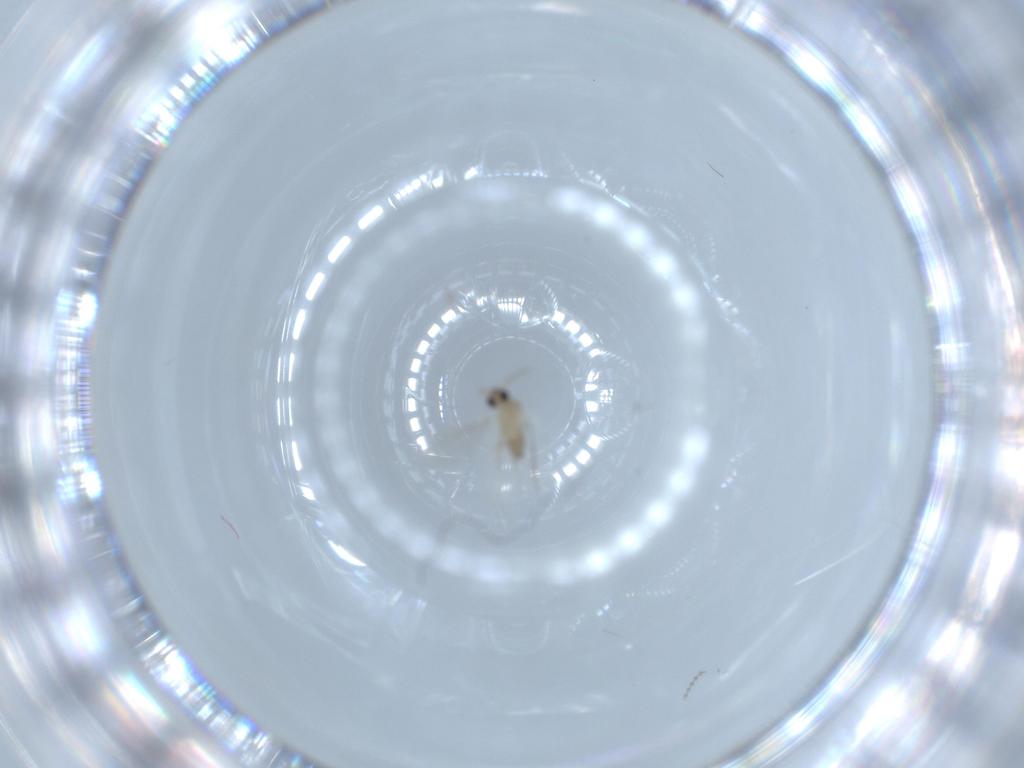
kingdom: Animalia
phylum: Arthropoda
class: Insecta
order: Diptera
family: Cecidomyiidae
